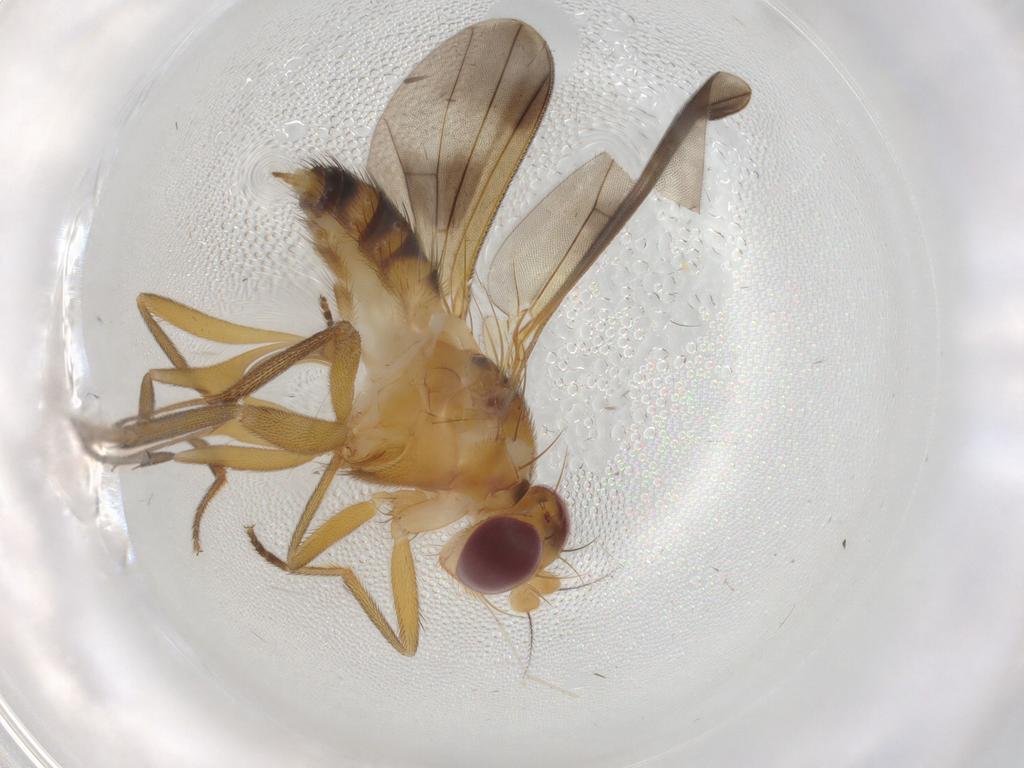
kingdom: Animalia
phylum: Arthropoda
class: Insecta
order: Diptera
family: Clusiidae
